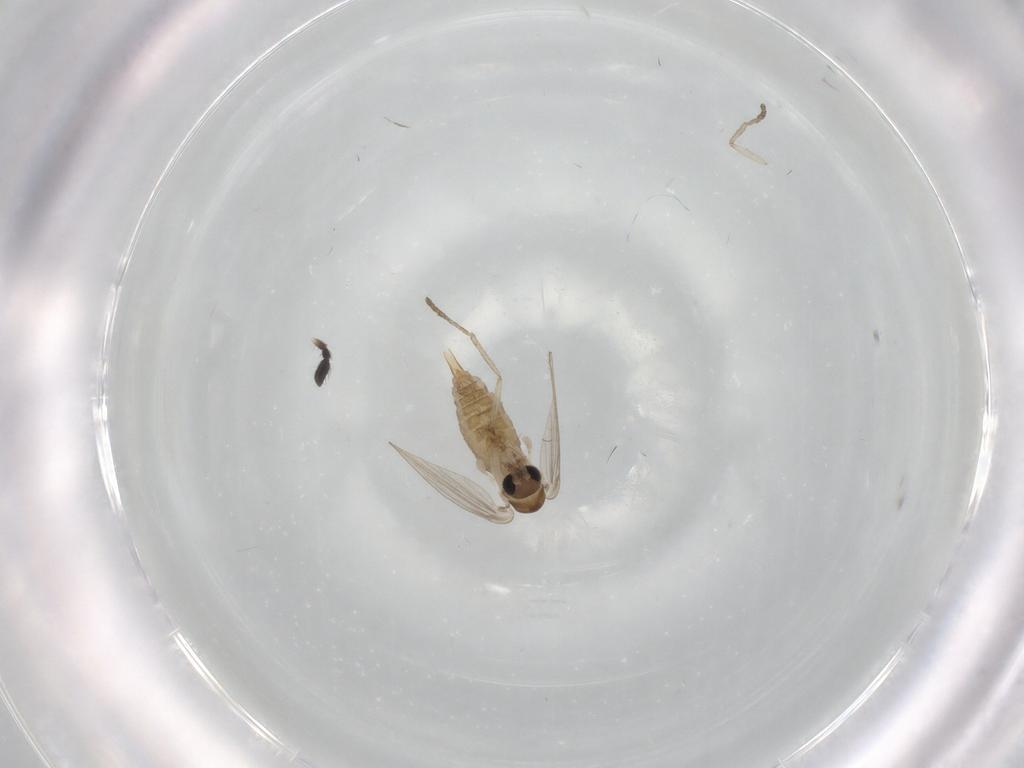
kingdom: Animalia
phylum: Arthropoda
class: Insecta
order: Diptera
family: Psychodidae
